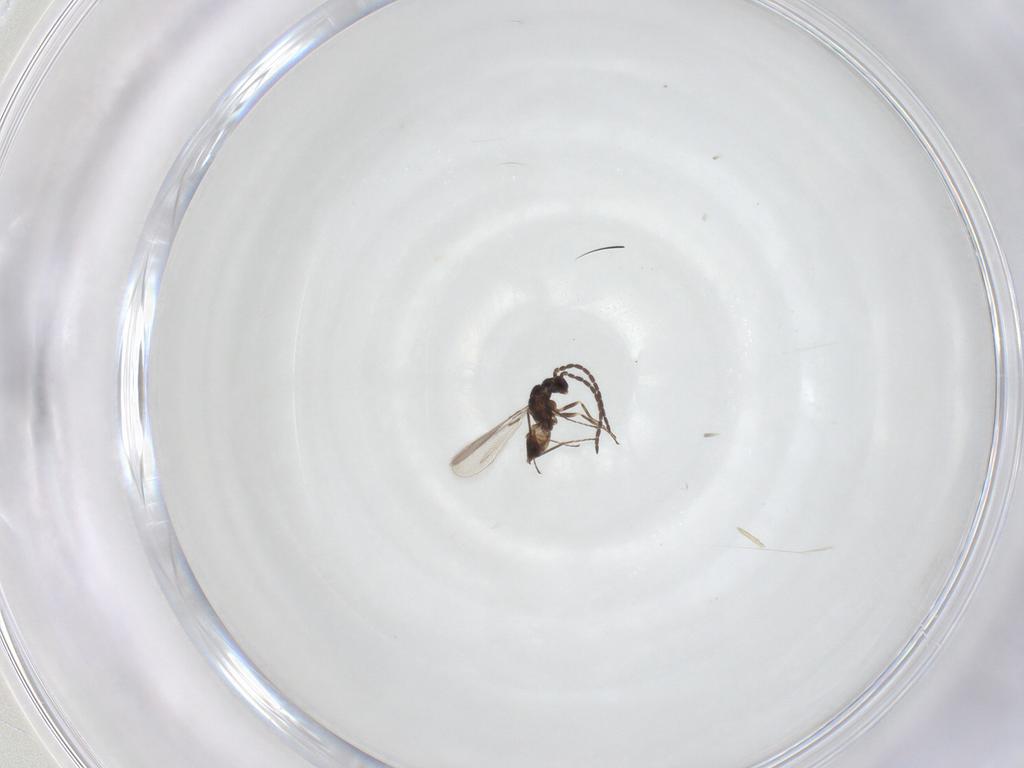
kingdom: Animalia
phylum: Arthropoda
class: Insecta
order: Hymenoptera
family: Mymaridae
